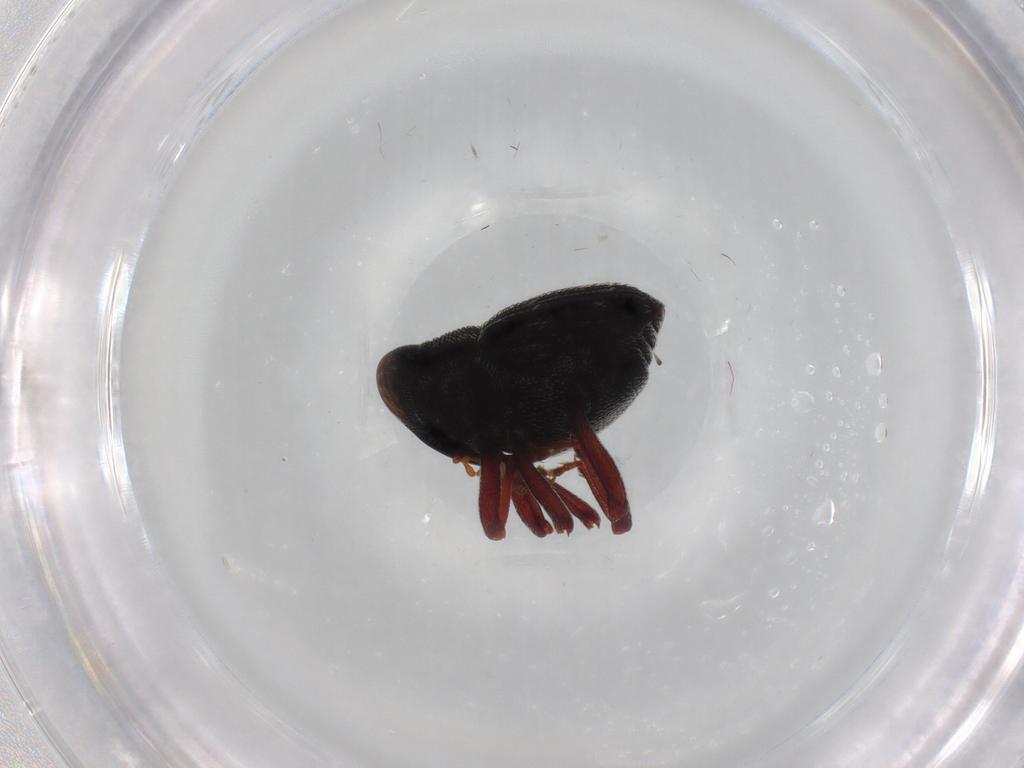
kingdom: Animalia
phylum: Arthropoda
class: Insecta
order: Coleoptera
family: Curculionidae
